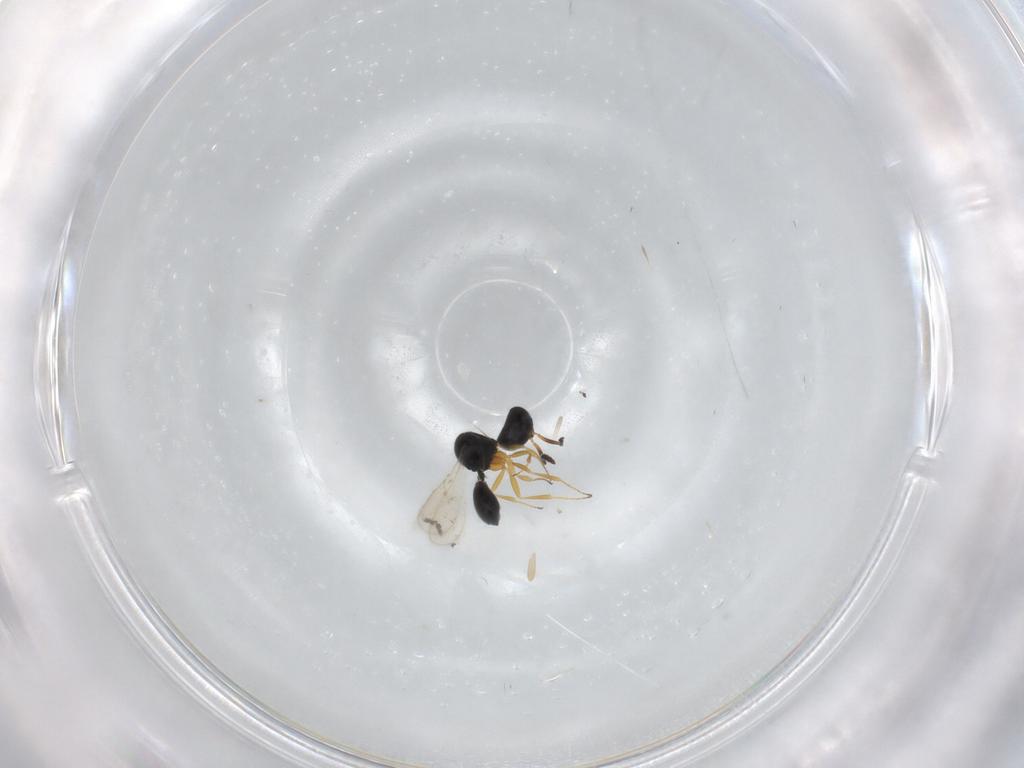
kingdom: Animalia
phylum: Arthropoda
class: Insecta
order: Hymenoptera
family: Scelionidae
